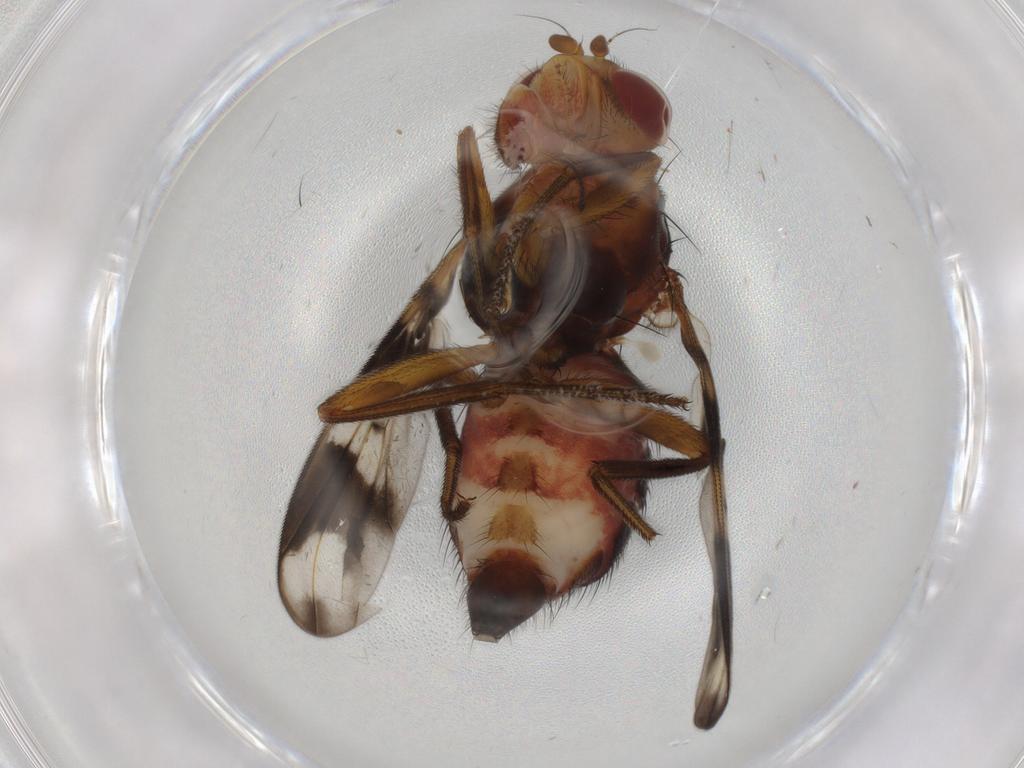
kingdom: Animalia
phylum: Arthropoda
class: Insecta
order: Diptera
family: Richardiidae
